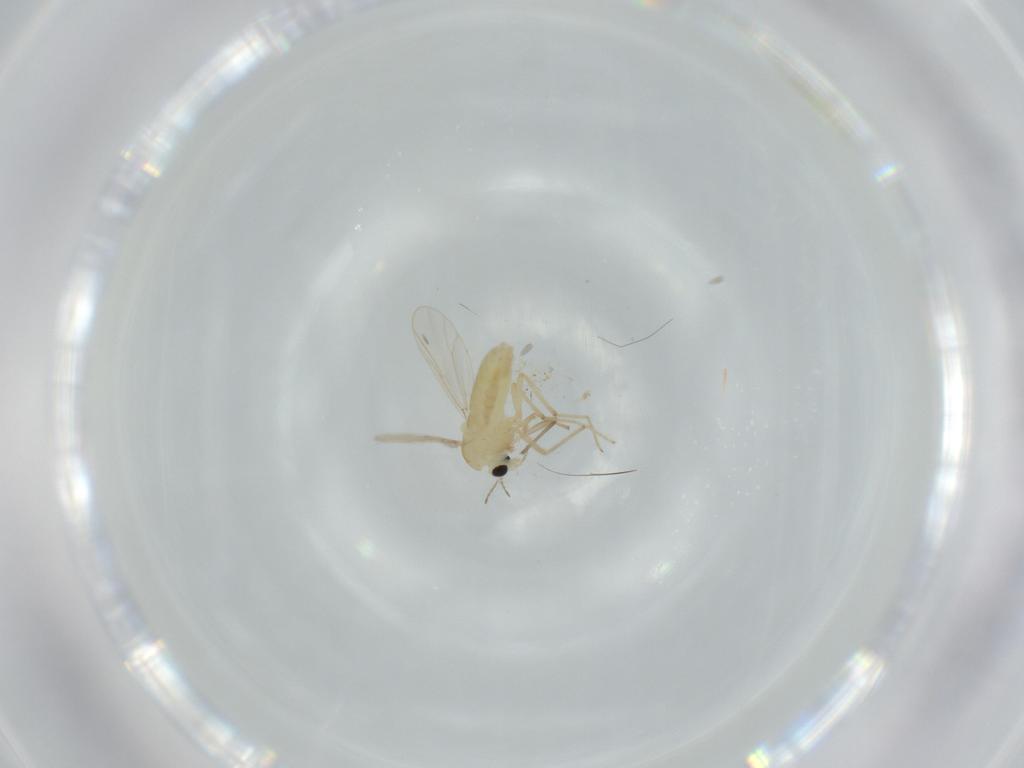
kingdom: Animalia
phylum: Arthropoda
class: Insecta
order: Diptera
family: Chironomidae
